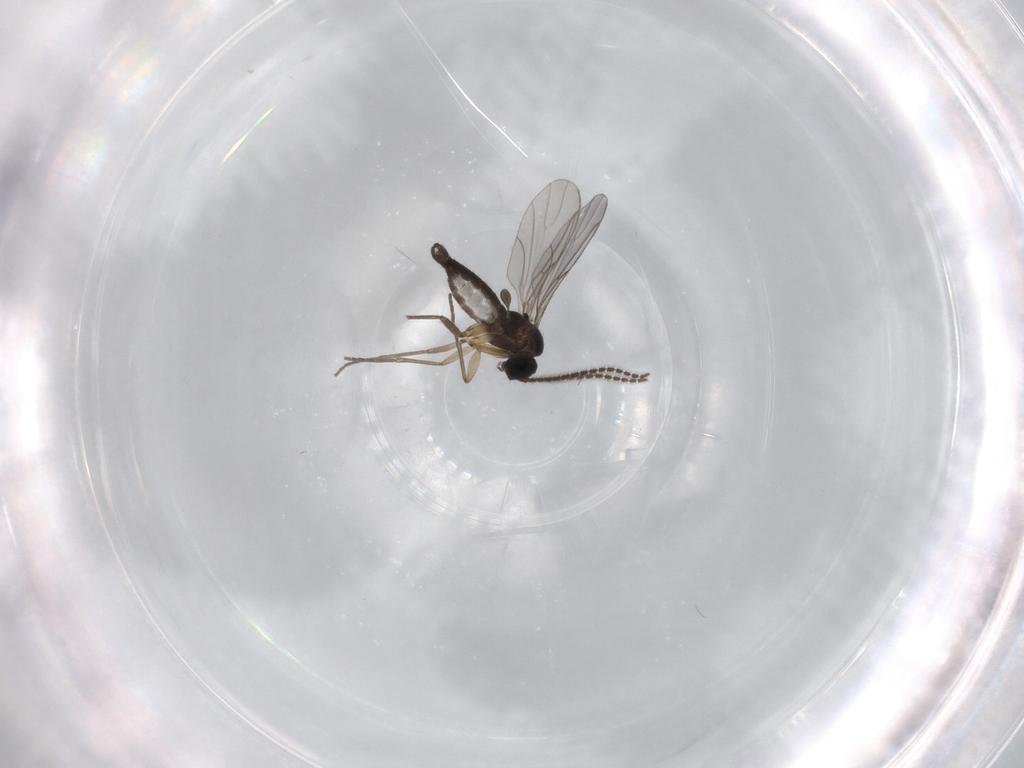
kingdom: Animalia
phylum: Arthropoda
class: Insecta
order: Diptera
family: Sciaridae
